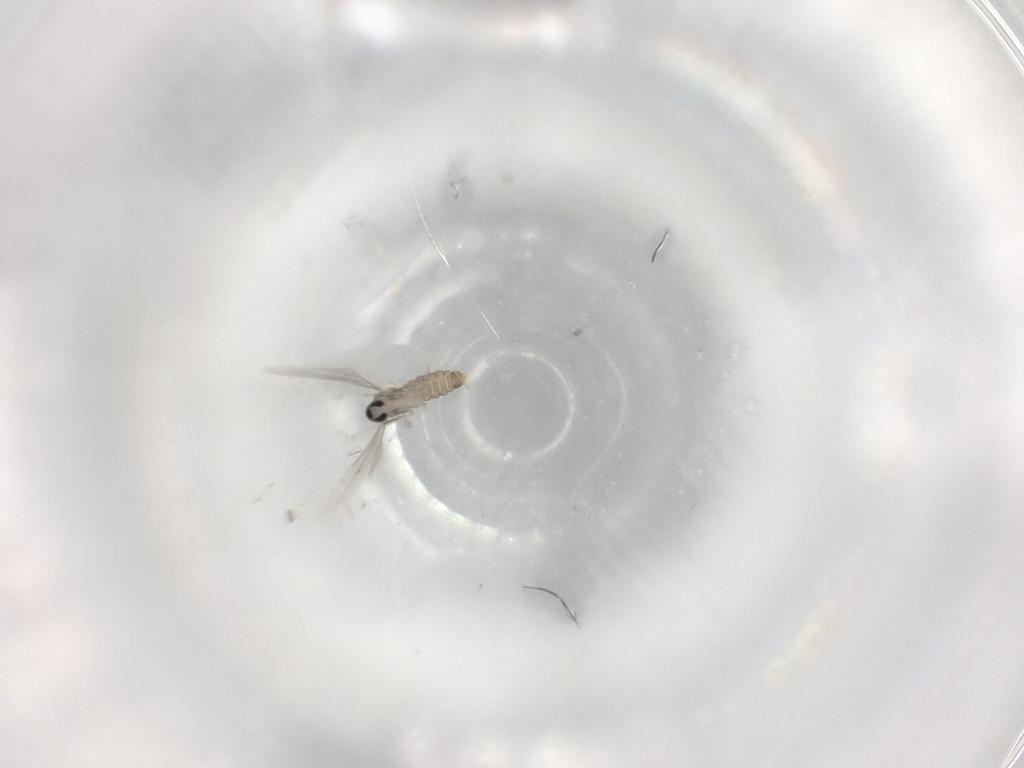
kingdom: Animalia
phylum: Arthropoda
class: Insecta
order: Diptera
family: Cecidomyiidae
